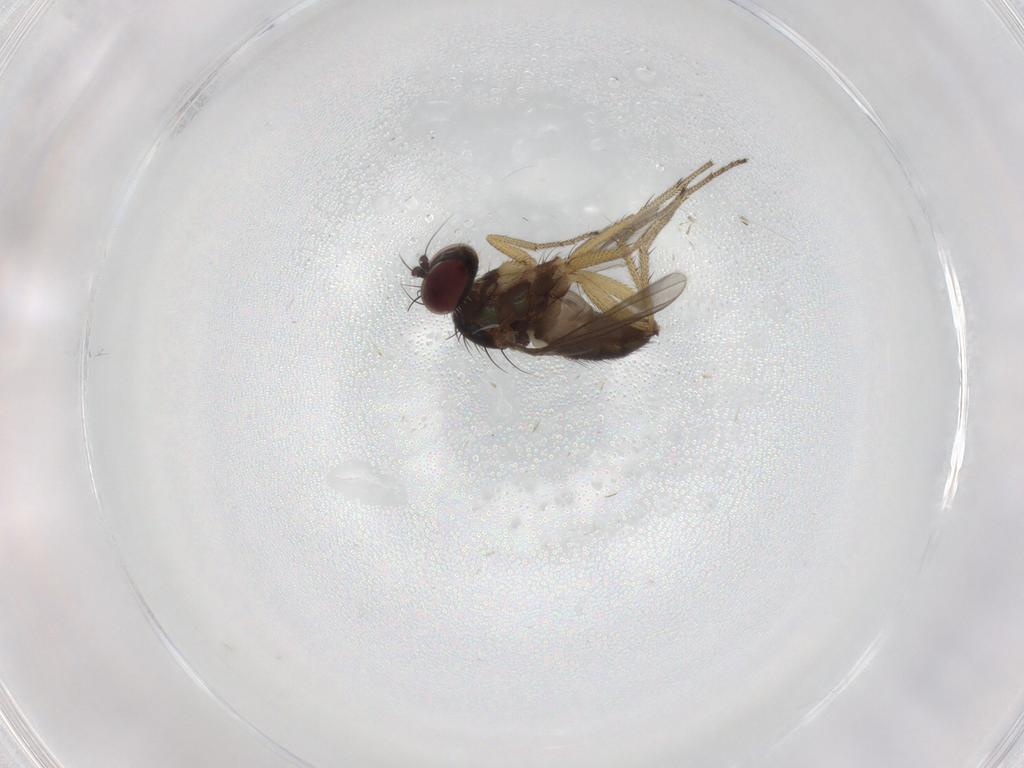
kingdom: Animalia
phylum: Arthropoda
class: Insecta
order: Diptera
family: Dolichopodidae
